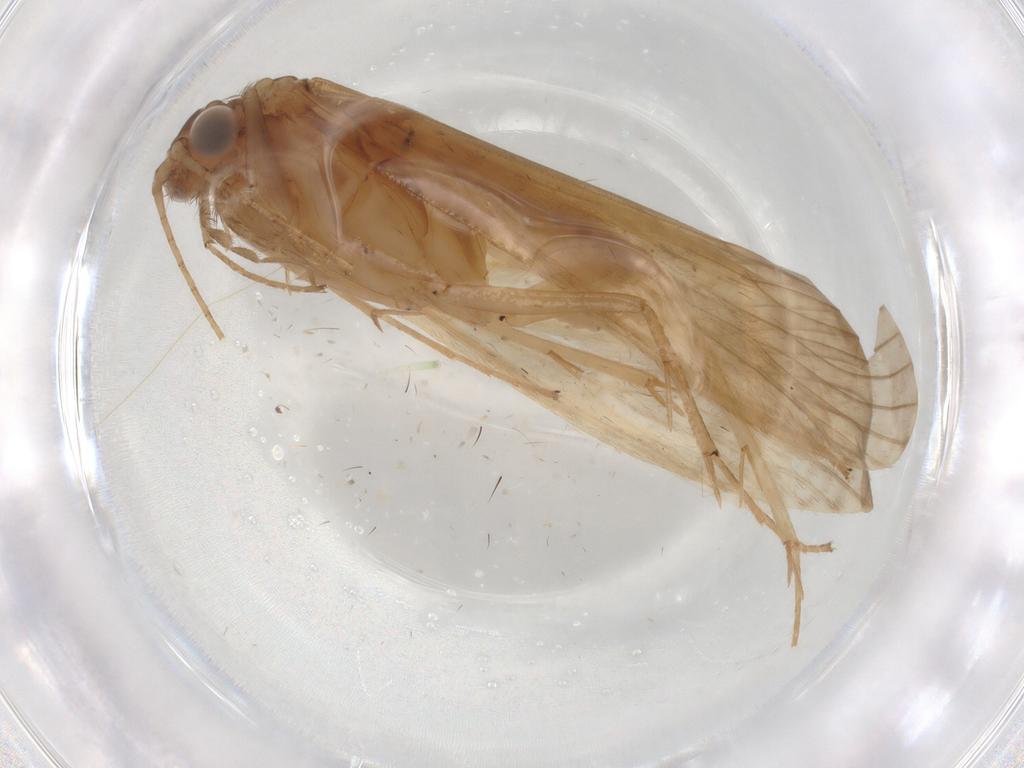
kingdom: Animalia
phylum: Arthropoda
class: Insecta
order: Trichoptera
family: Hydropsychidae
